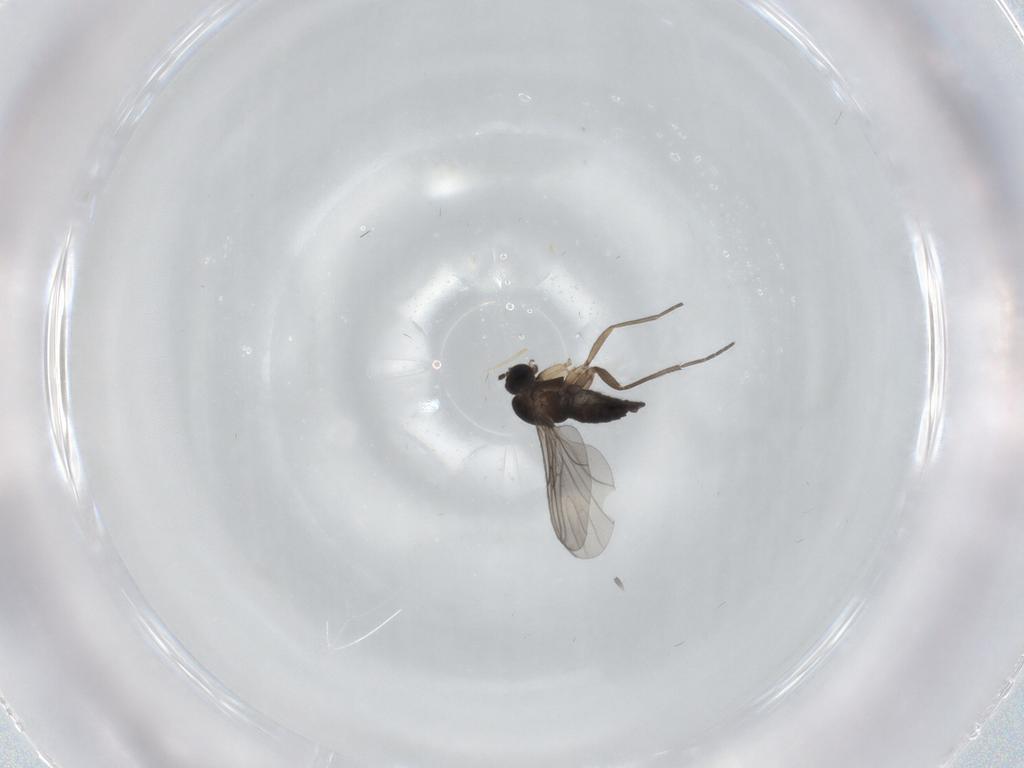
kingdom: Animalia
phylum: Arthropoda
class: Insecta
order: Diptera
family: Sciaridae
